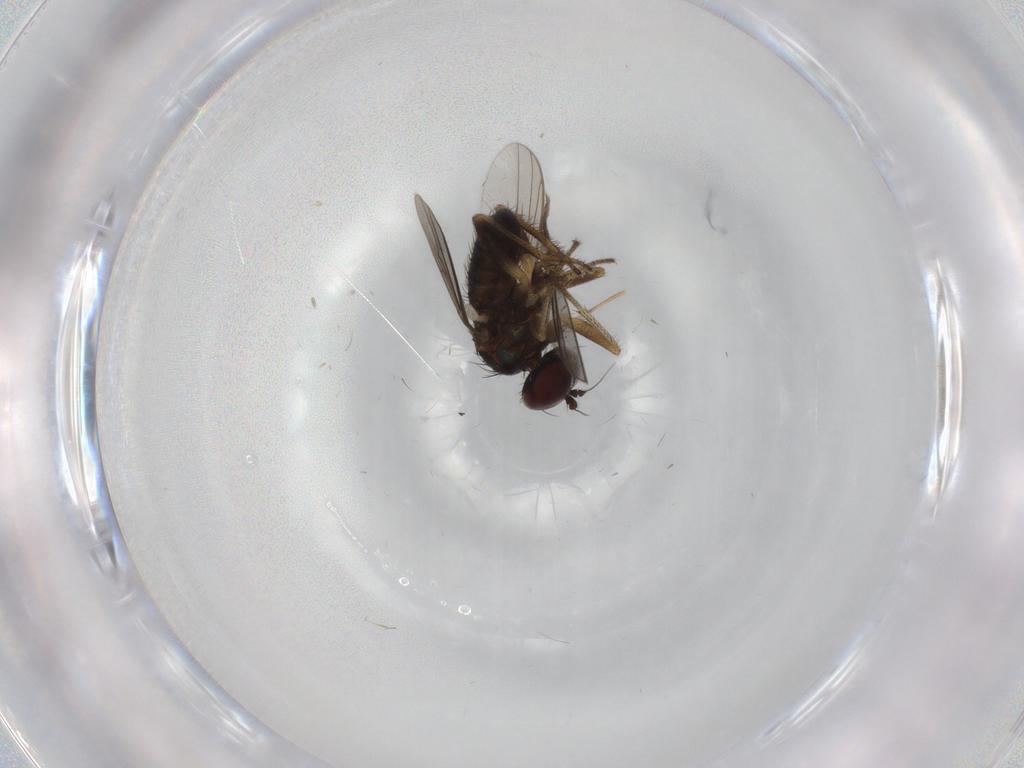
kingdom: Animalia
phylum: Arthropoda
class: Insecta
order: Diptera
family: Dolichopodidae
